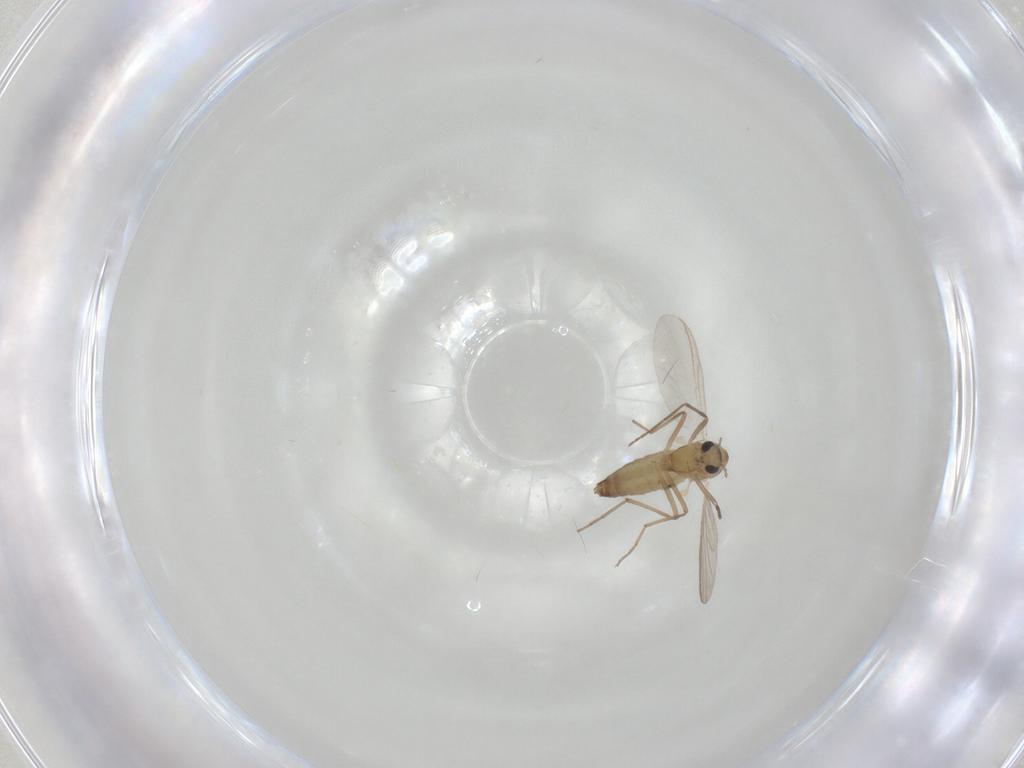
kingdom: Animalia
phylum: Arthropoda
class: Insecta
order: Diptera
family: Chironomidae
